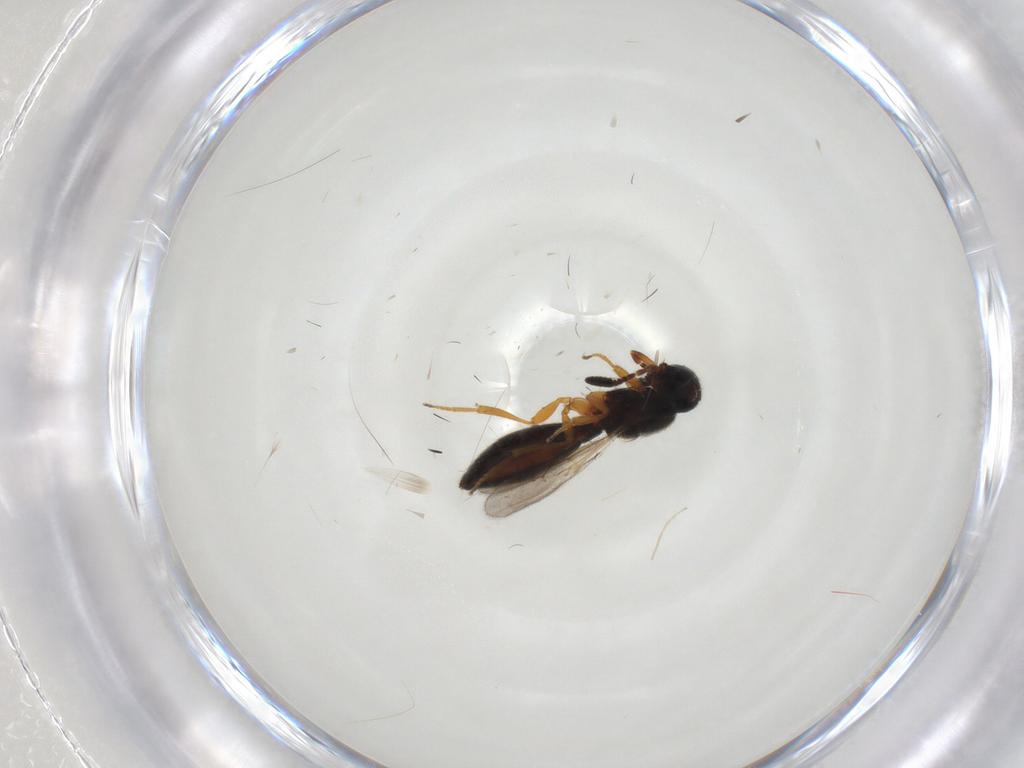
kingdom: Animalia
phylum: Arthropoda
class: Insecta
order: Hymenoptera
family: Scelionidae
